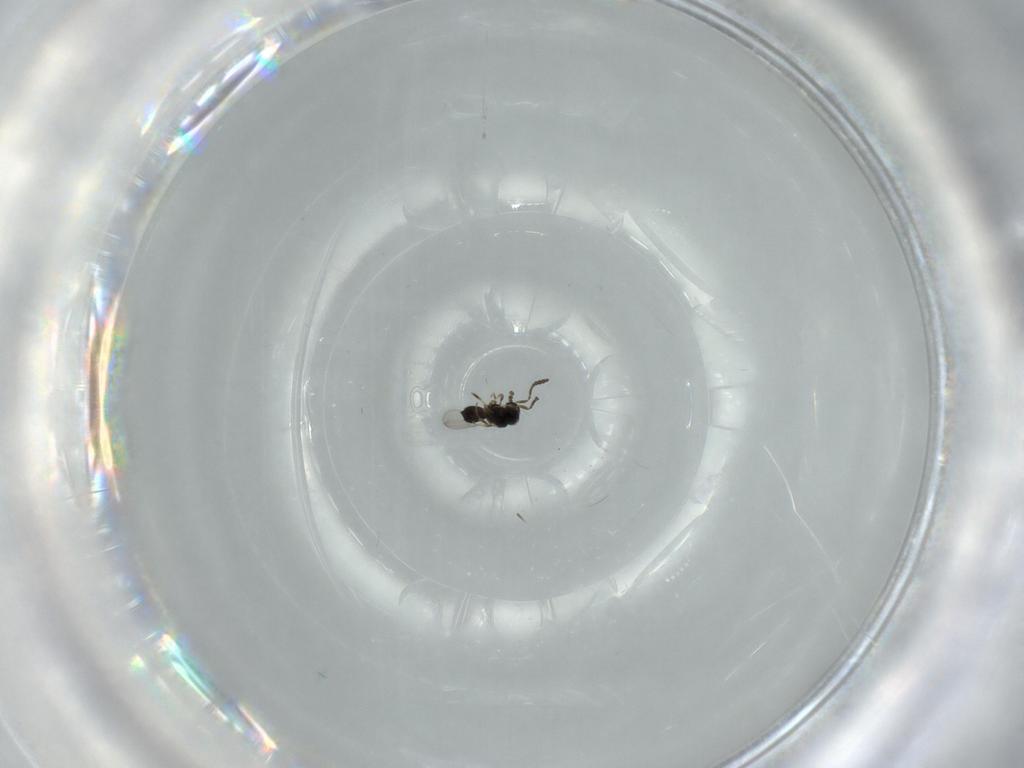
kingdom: Animalia
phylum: Arthropoda
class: Insecta
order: Hymenoptera
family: Scelionidae
